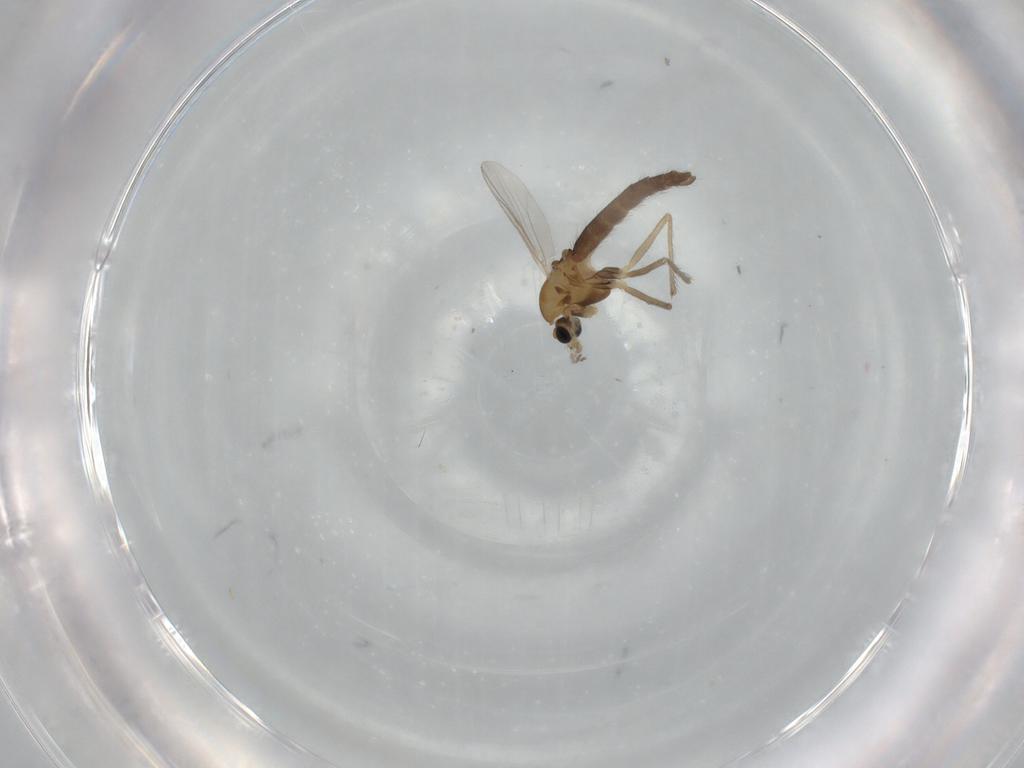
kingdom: Animalia
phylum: Arthropoda
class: Insecta
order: Diptera
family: Chironomidae
